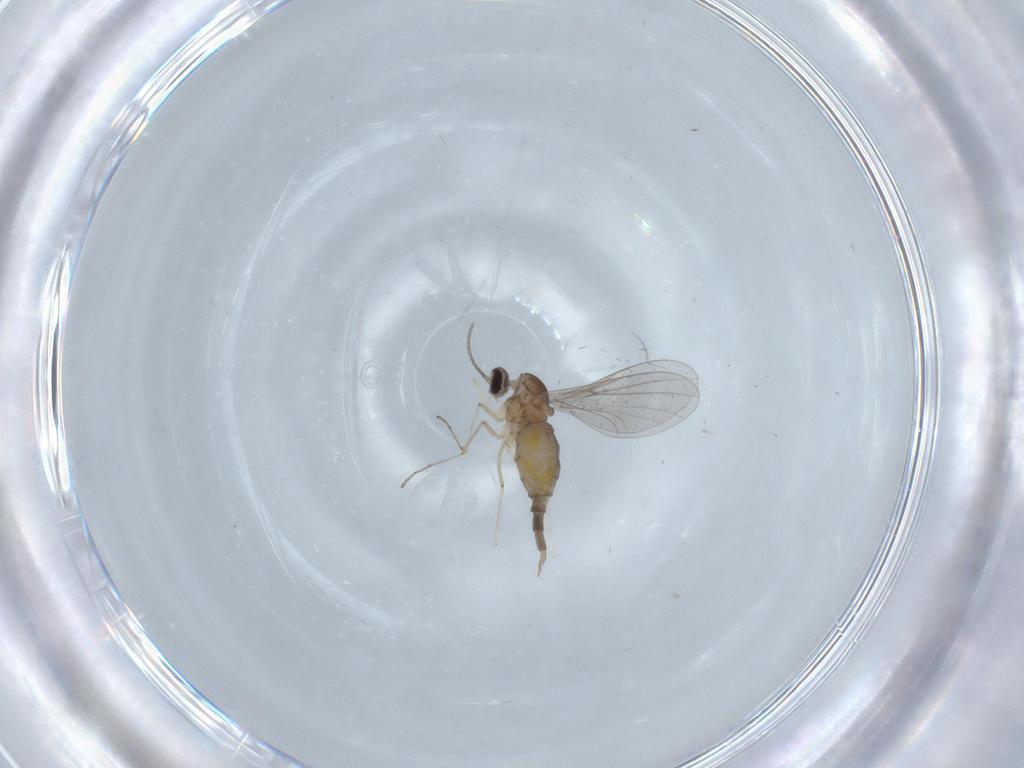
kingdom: Animalia
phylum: Arthropoda
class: Insecta
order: Diptera
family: Cecidomyiidae
